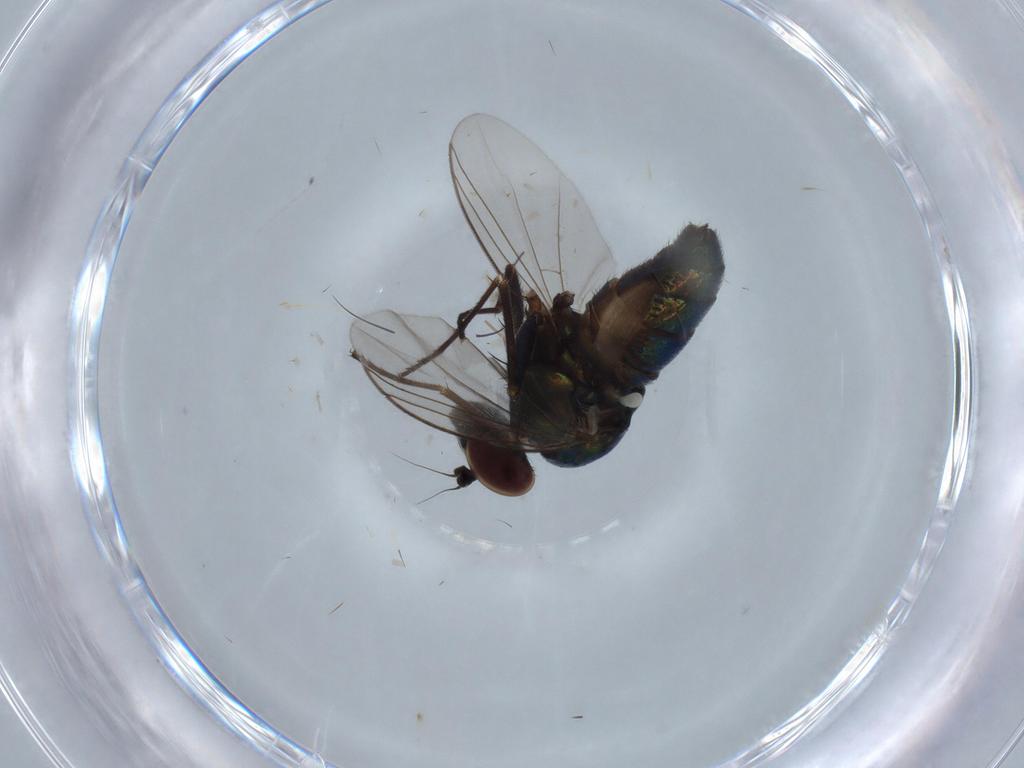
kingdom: Animalia
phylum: Arthropoda
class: Insecta
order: Diptera
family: Dolichopodidae
